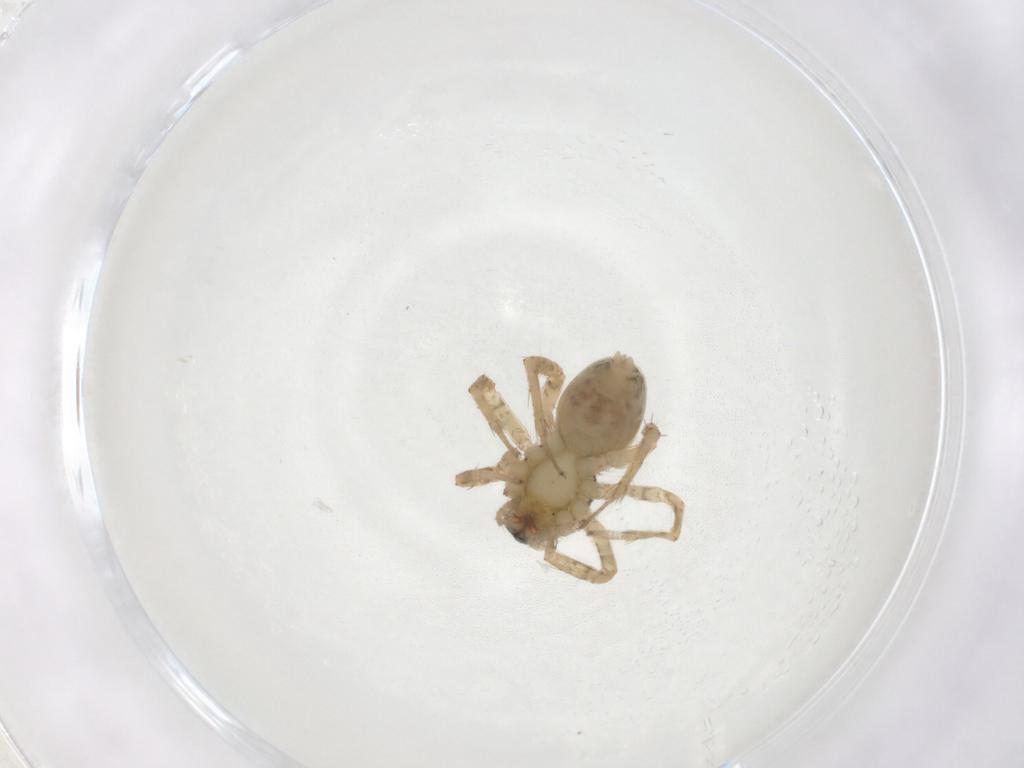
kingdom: Animalia
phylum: Arthropoda
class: Arachnida
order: Araneae
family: Anyphaenidae
